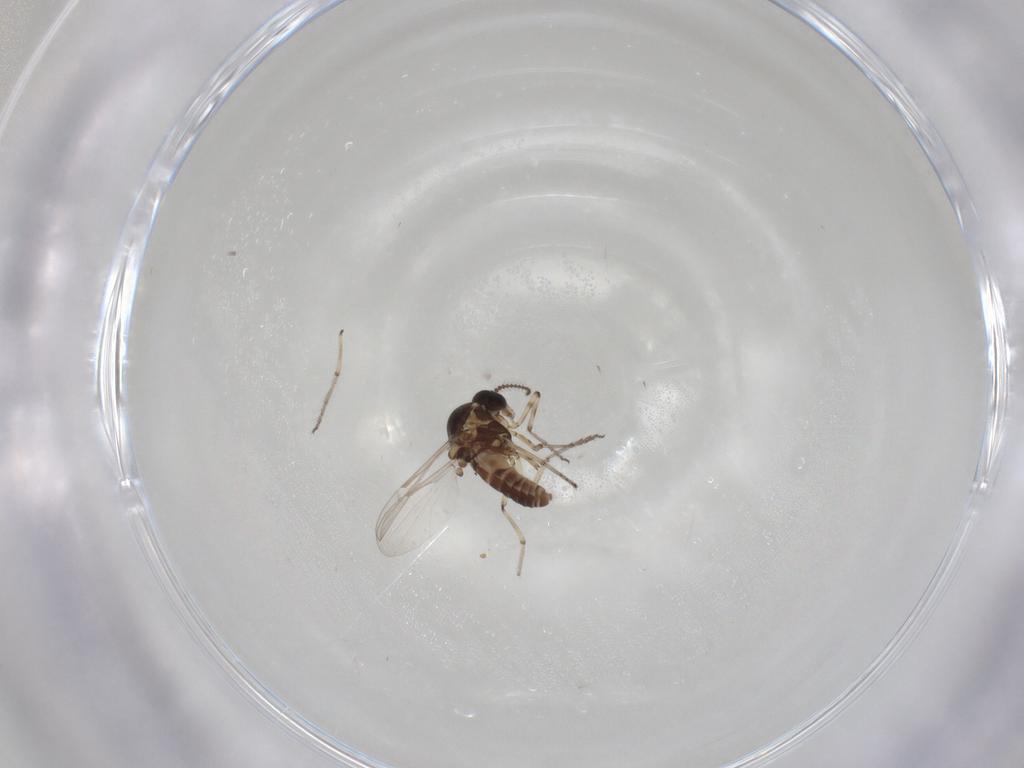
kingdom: Animalia
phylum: Arthropoda
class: Insecta
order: Diptera
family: Ceratopogonidae
